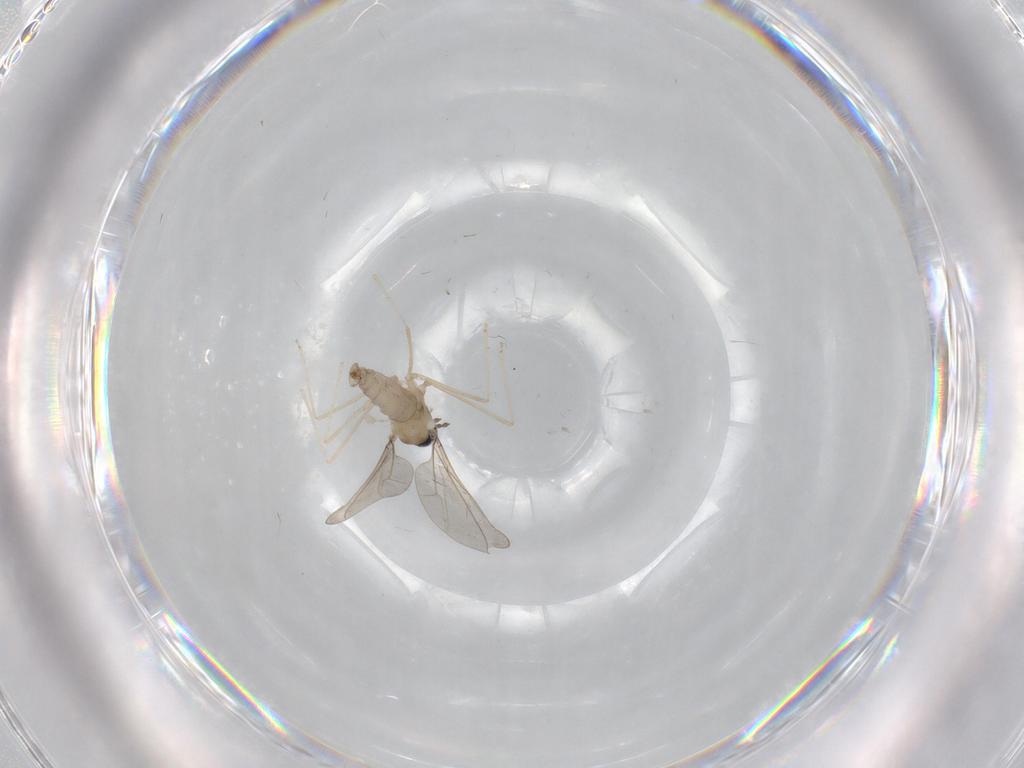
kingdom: Animalia
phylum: Arthropoda
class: Insecta
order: Diptera
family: Cecidomyiidae
